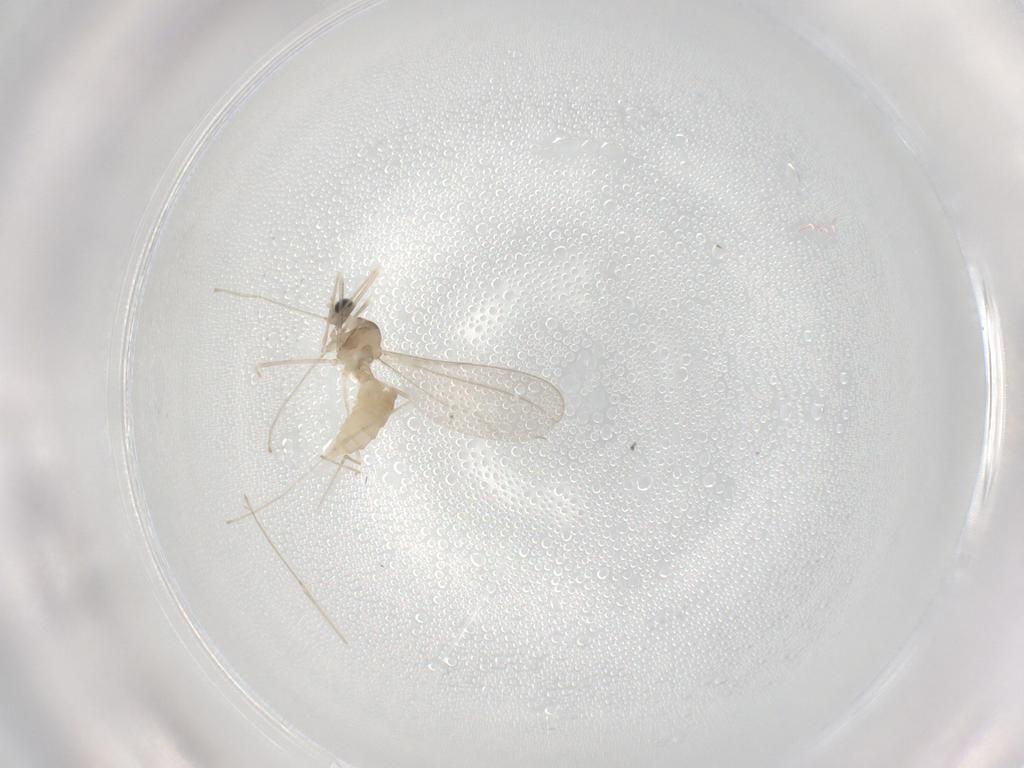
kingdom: Animalia
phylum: Arthropoda
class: Insecta
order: Diptera
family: Cecidomyiidae
